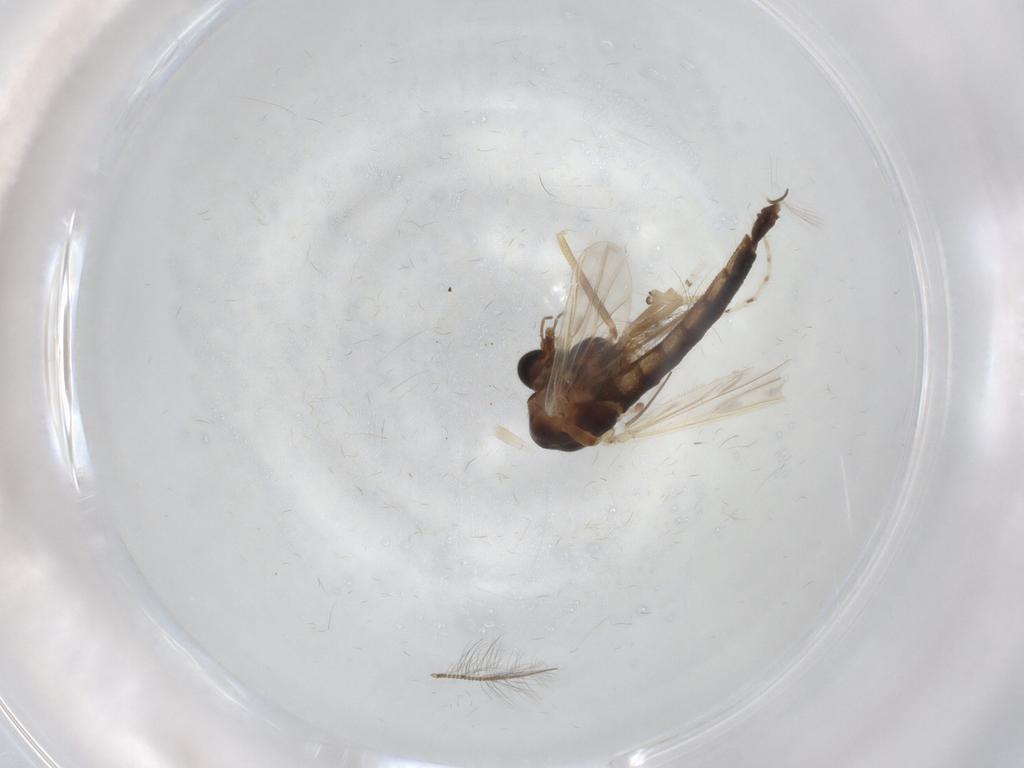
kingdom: Animalia
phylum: Arthropoda
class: Insecta
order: Diptera
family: Chironomidae
